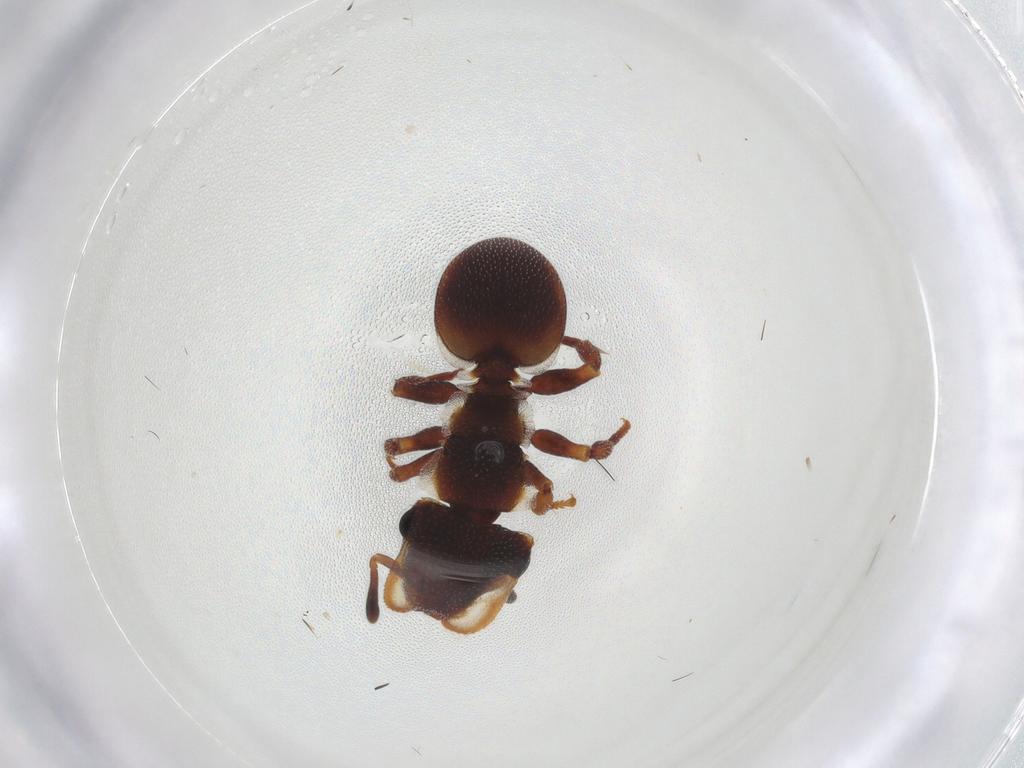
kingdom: Animalia
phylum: Arthropoda
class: Insecta
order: Hymenoptera
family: Formicidae
